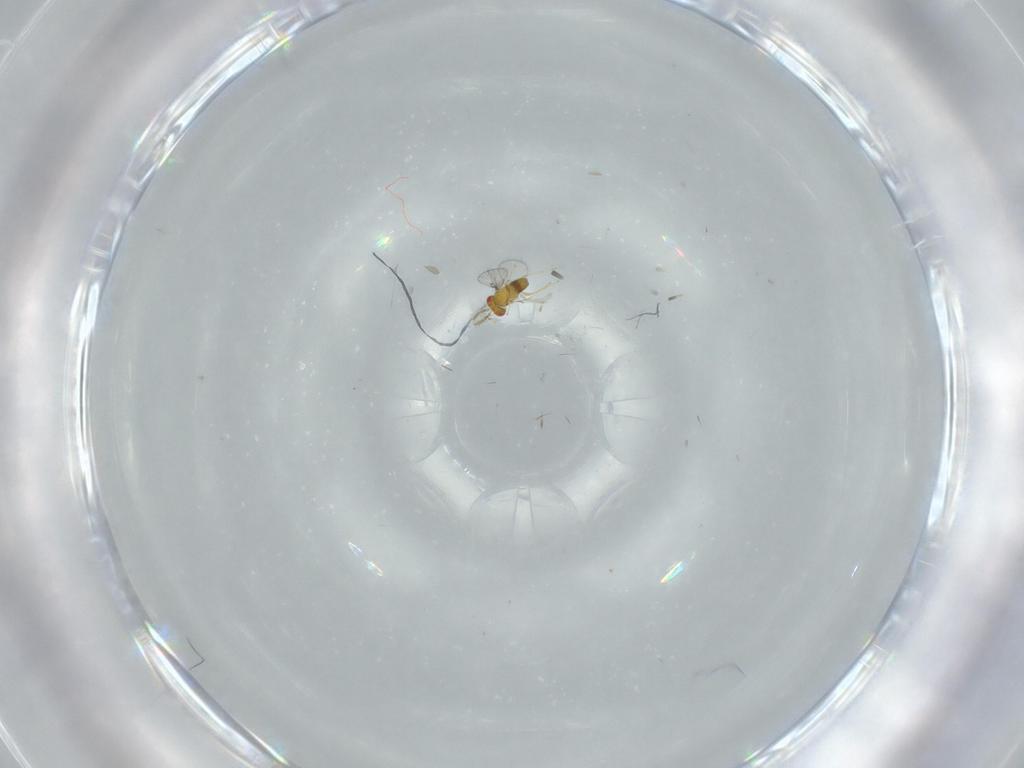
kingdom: Animalia
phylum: Arthropoda
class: Insecta
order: Hymenoptera
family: Trichogrammatidae
